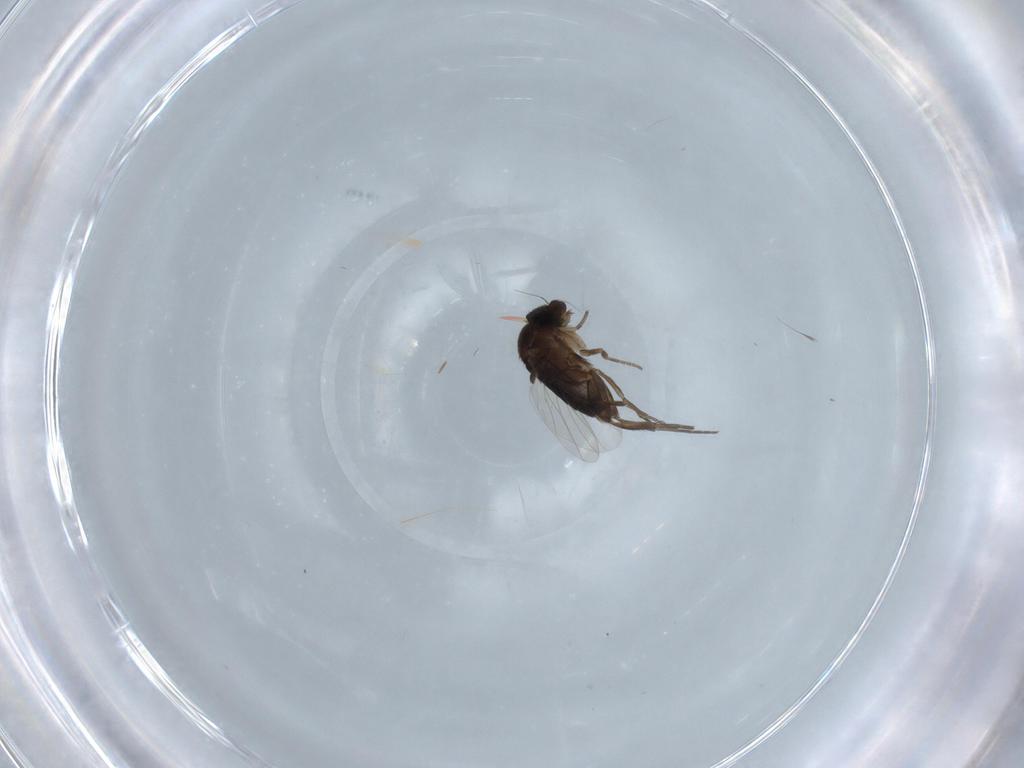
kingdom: Animalia
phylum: Arthropoda
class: Insecta
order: Diptera
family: Phoridae
